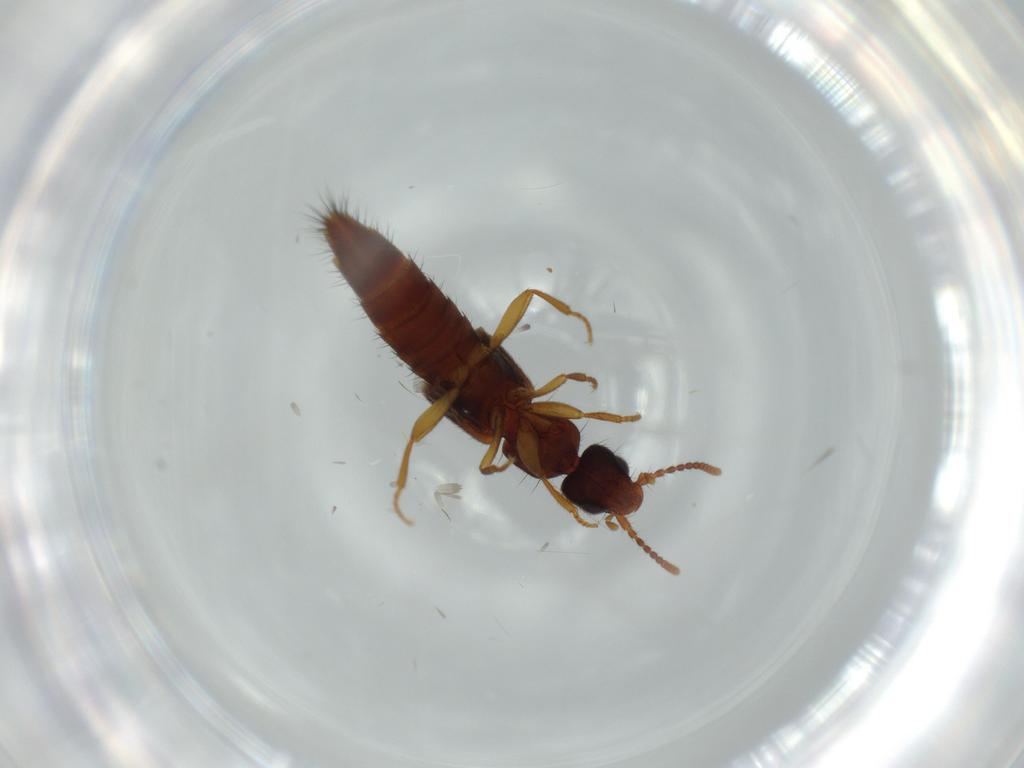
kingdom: Animalia
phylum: Arthropoda
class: Insecta
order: Coleoptera
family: Staphylinidae
